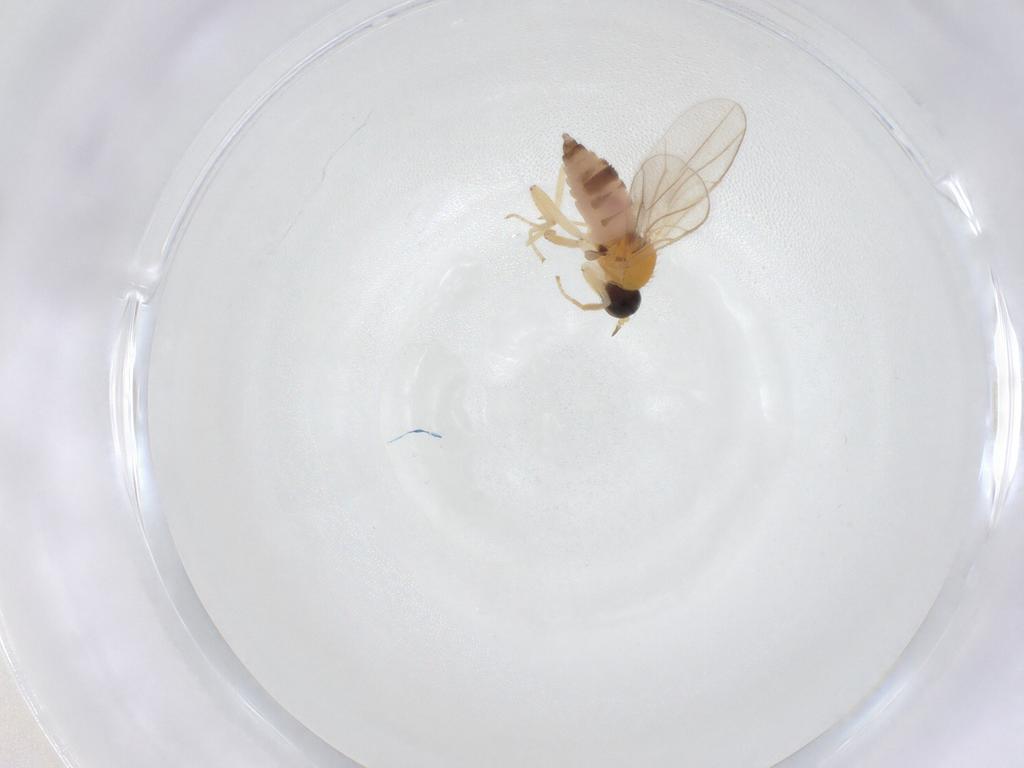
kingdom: Animalia
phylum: Arthropoda
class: Insecta
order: Diptera
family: Hybotidae
